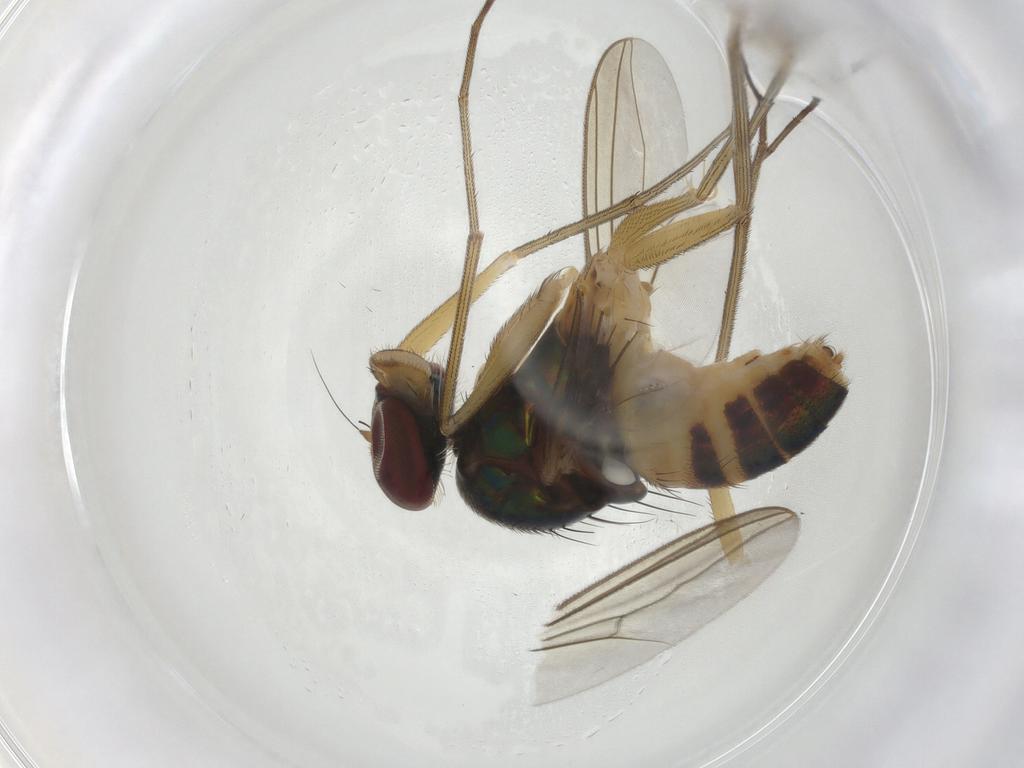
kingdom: Animalia
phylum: Arthropoda
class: Insecta
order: Diptera
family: Dolichopodidae
